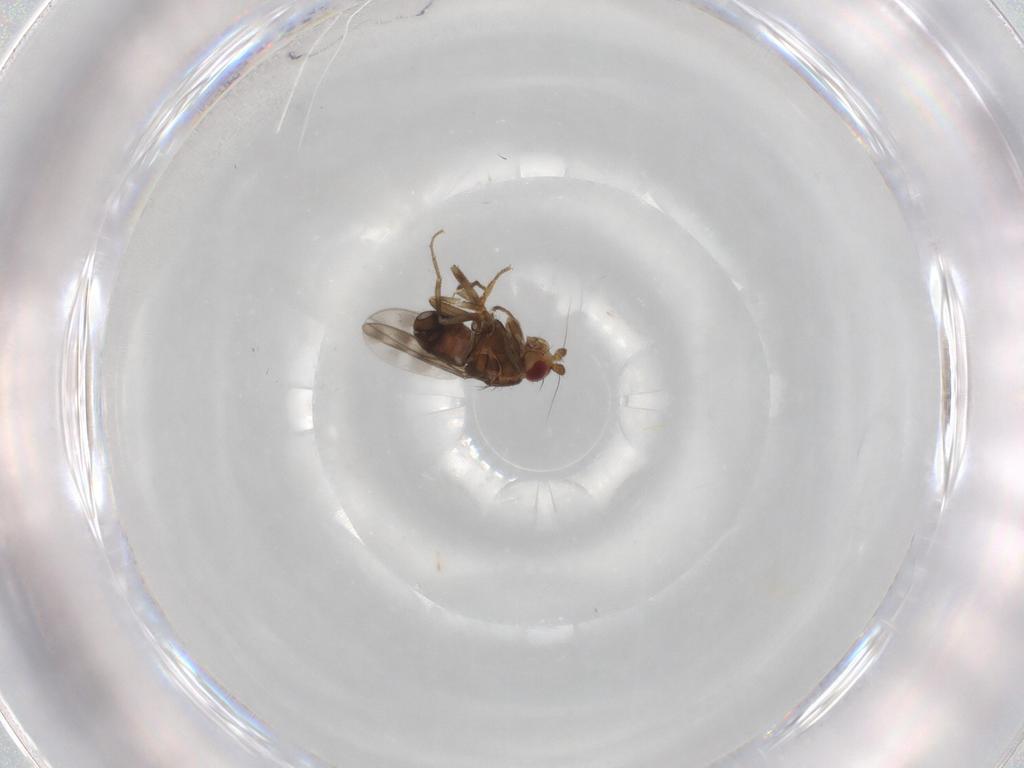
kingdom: Animalia
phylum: Arthropoda
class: Insecta
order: Diptera
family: Sphaeroceridae
